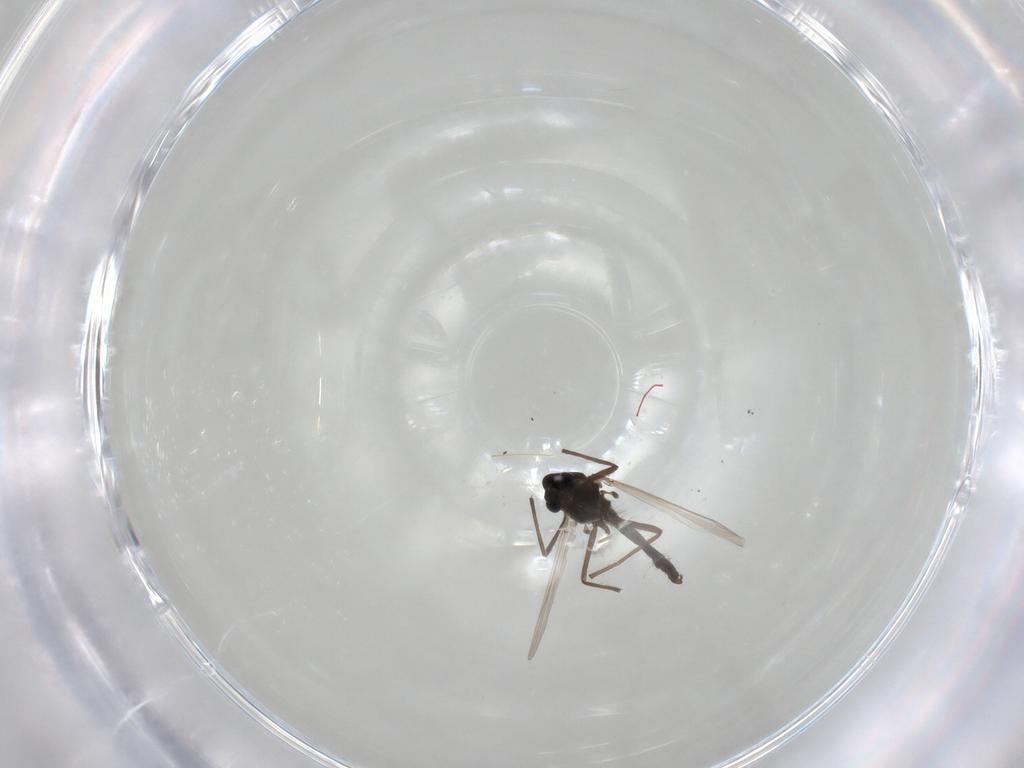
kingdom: Animalia
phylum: Arthropoda
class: Insecta
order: Diptera
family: Chironomidae
